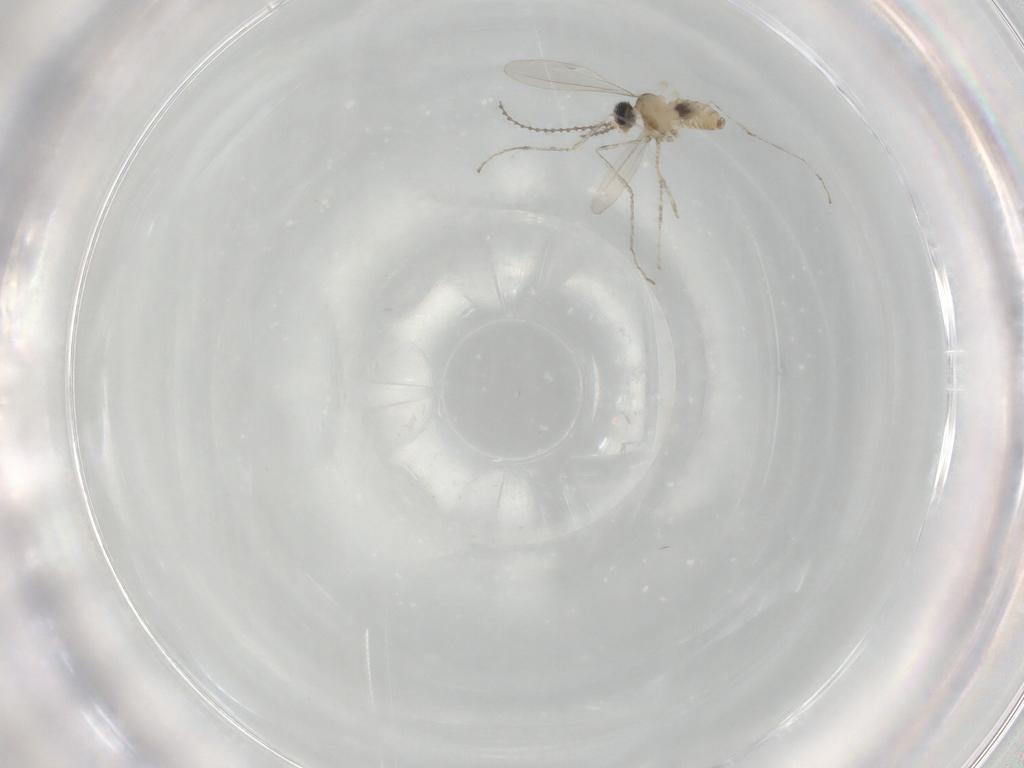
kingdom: Animalia
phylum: Arthropoda
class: Insecta
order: Diptera
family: Cecidomyiidae
